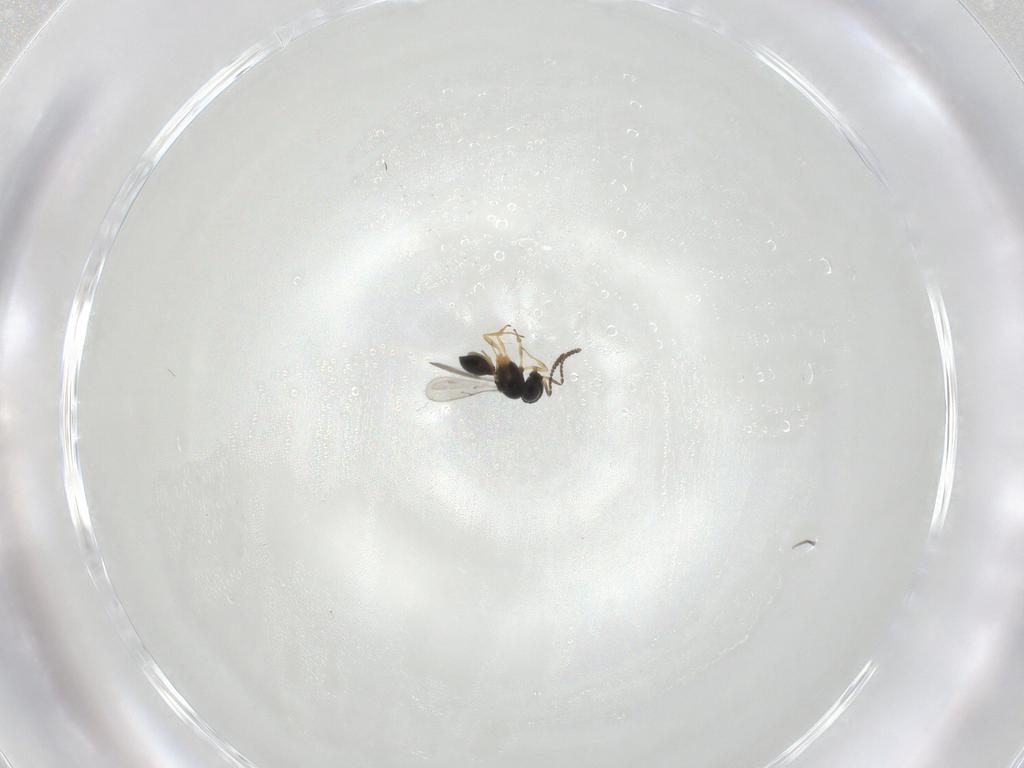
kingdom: Animalia
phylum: Arthropoda
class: Insecta
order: Hymenoptera
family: Scelionidae
